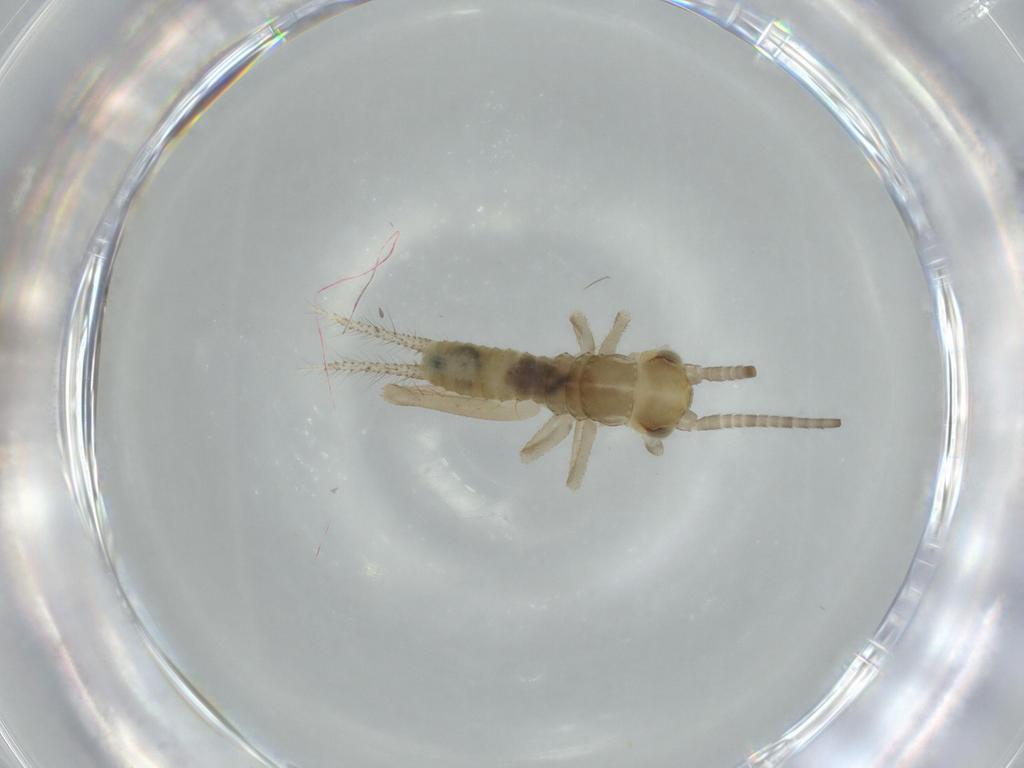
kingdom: Animalia
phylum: Arthropoda
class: Insecta
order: Orthoptera
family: Gryllidae
